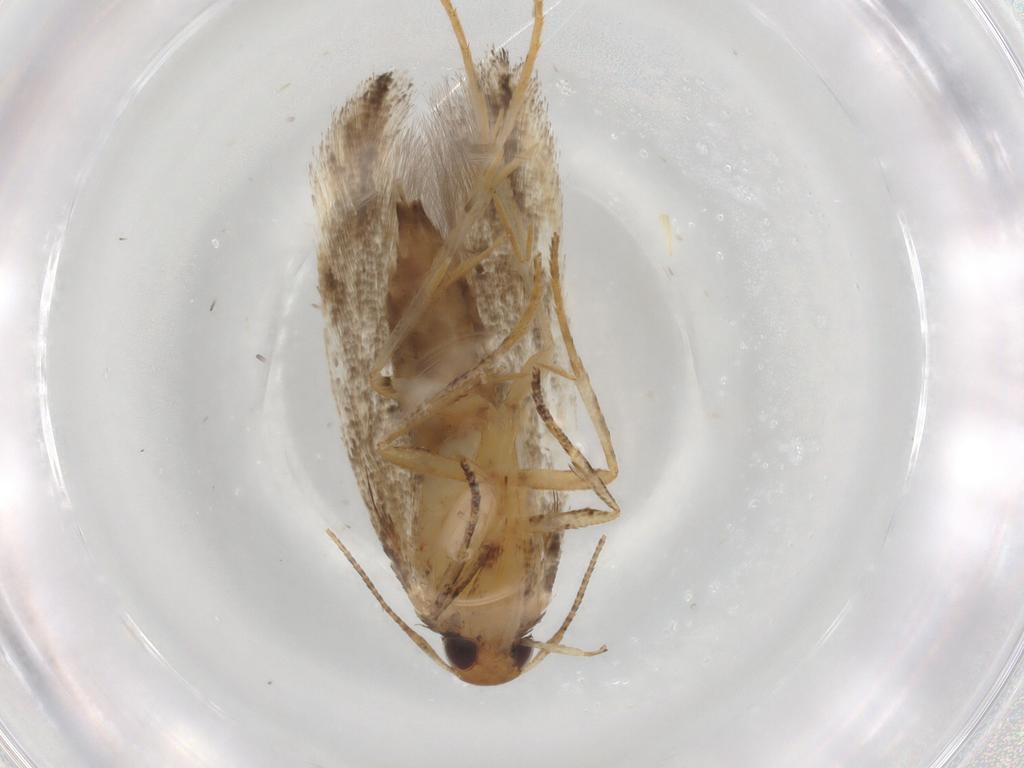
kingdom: Animalia
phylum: Arthropoda
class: Insecta
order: Lepidoptera
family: Gelechiidae
